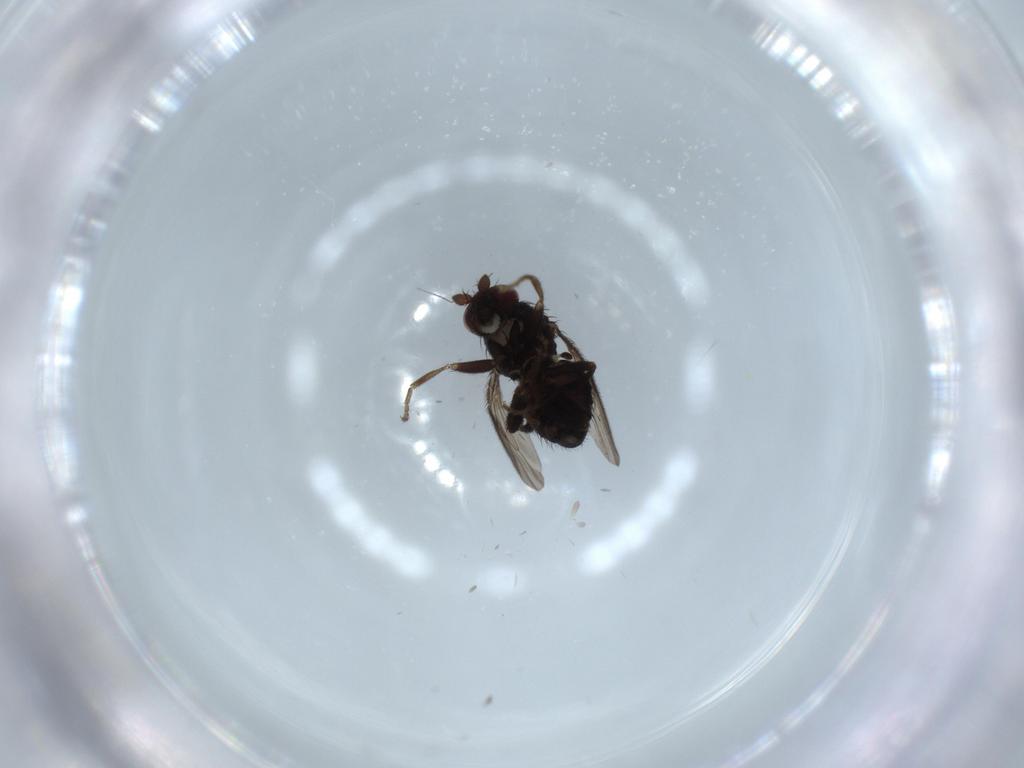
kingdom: Animalia
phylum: Arthropoda
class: Insecta
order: Diptera
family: Sphaeroceridae
